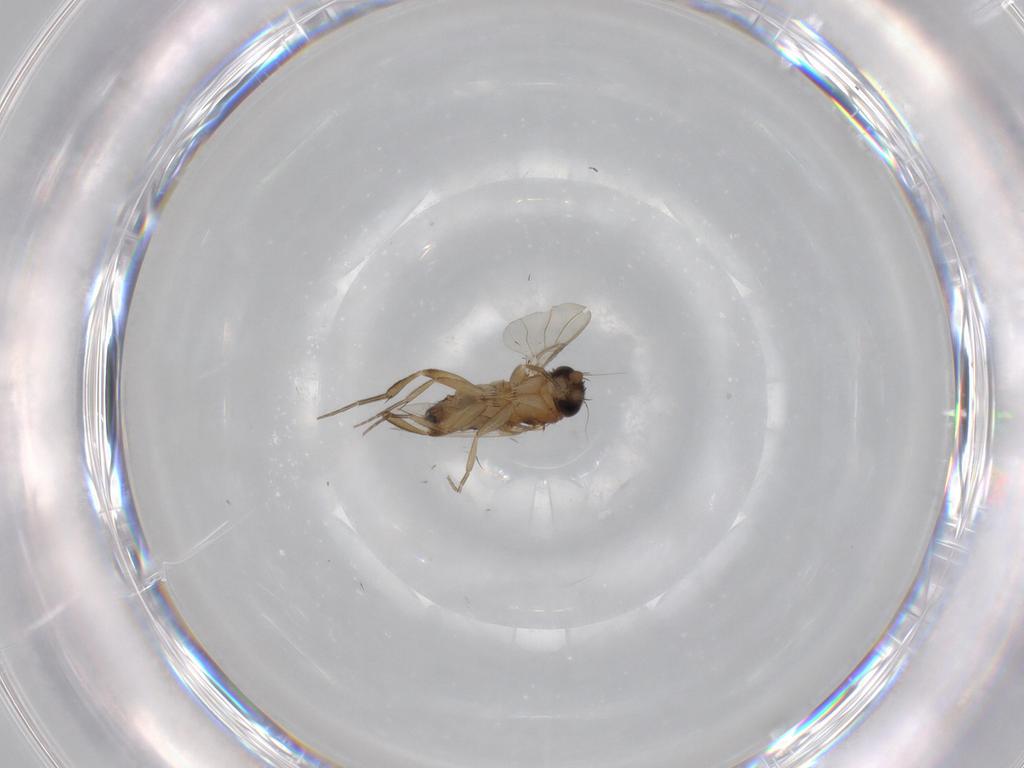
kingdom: Animalia
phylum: Arthropoda
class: Insecta
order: Diptera
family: Phoridae
